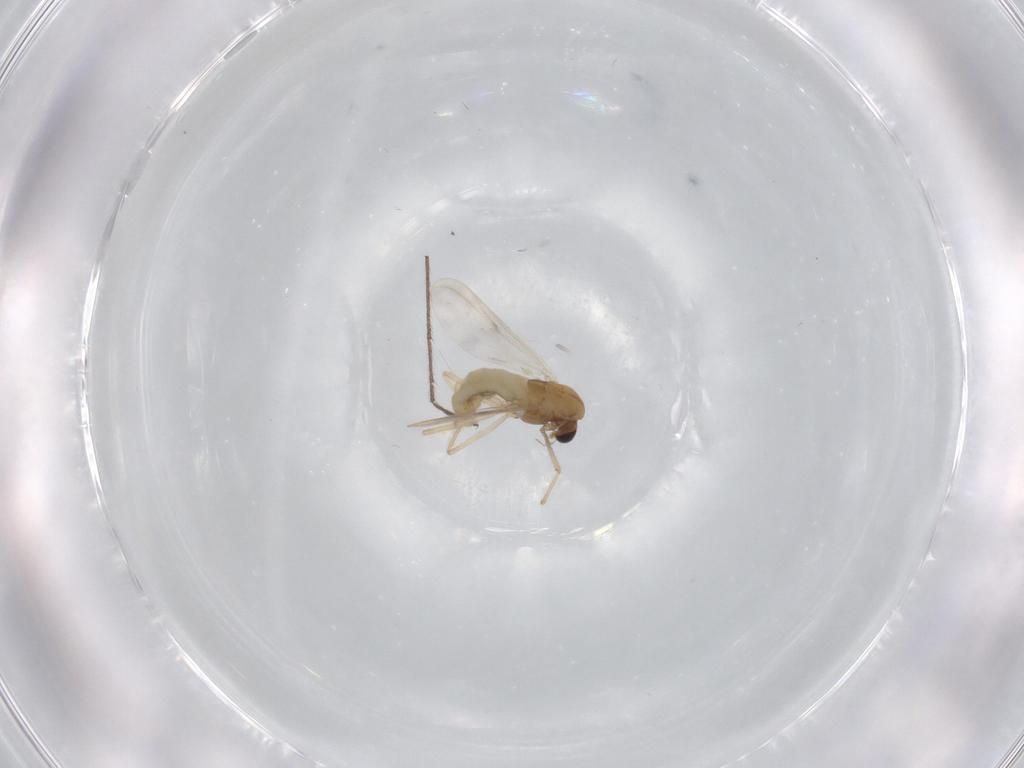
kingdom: Animalia
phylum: Arthropoda
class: Insecta
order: Diptera
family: Chironomidae
